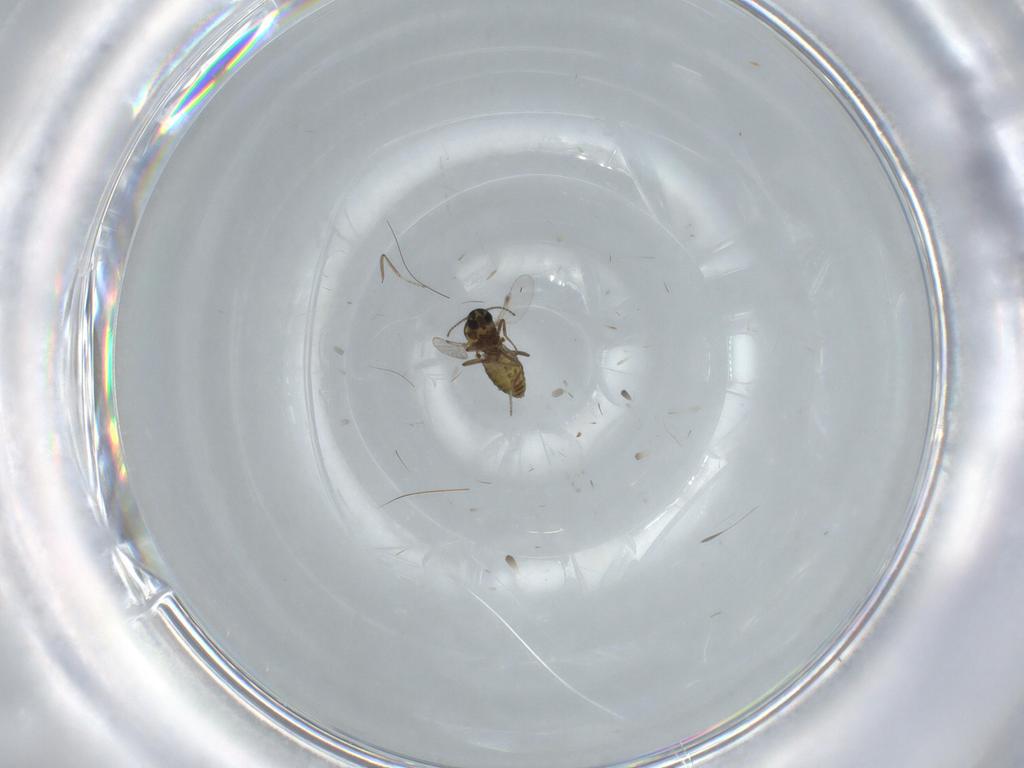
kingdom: Animalia
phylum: Arthropoda
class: Insecta
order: Diptera
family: Ceratopogonidae
